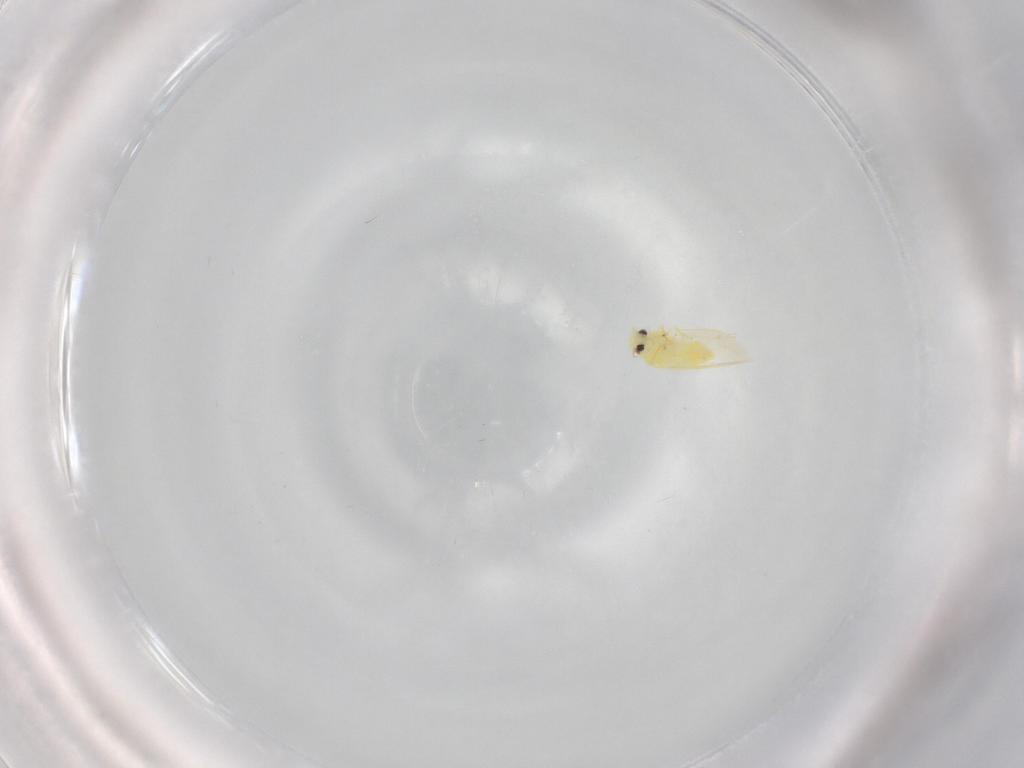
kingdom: Animalia
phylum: Arthropoda
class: Insecta
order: Hemiptera
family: Aleyrodidae
